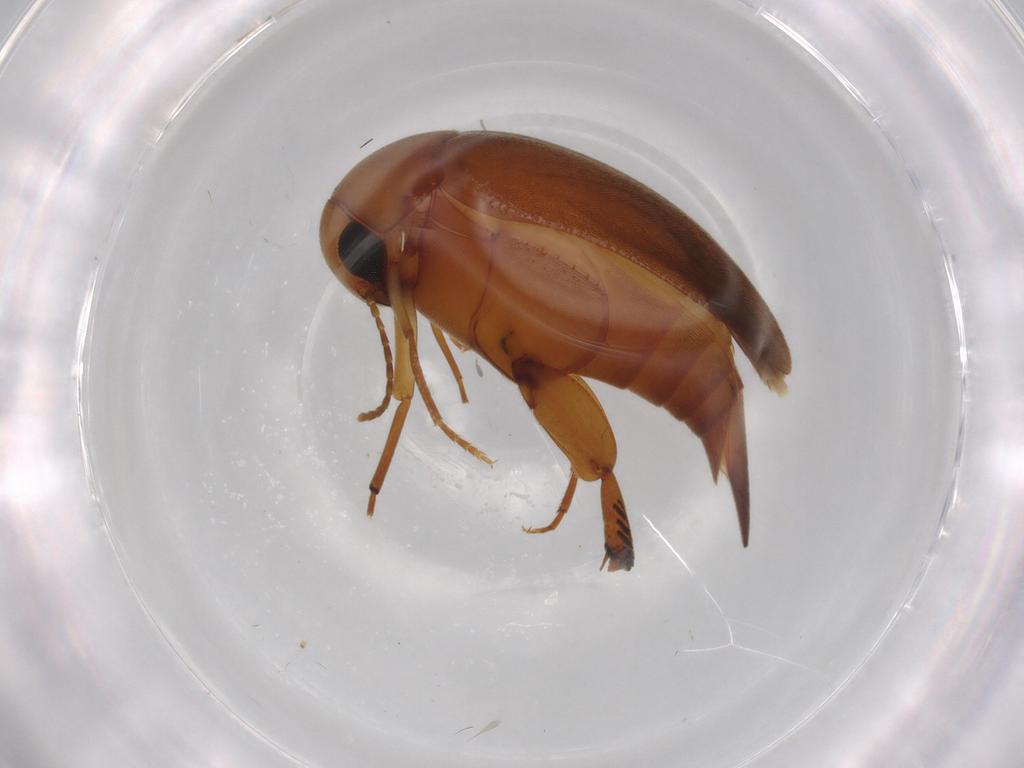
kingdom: Animalia
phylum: Arthropoda
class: Insecta
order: Coleoptera
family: Mordellidae
